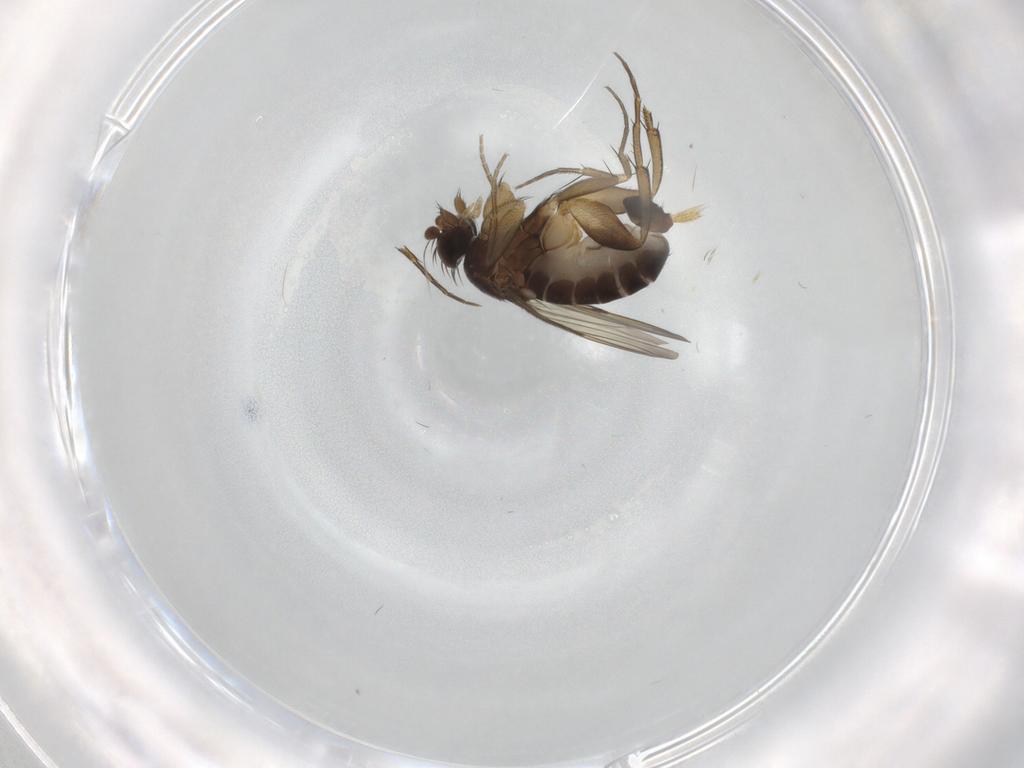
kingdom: Animalia
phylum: Arthropoda
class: Insecta
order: Diptera
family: Phoridae
